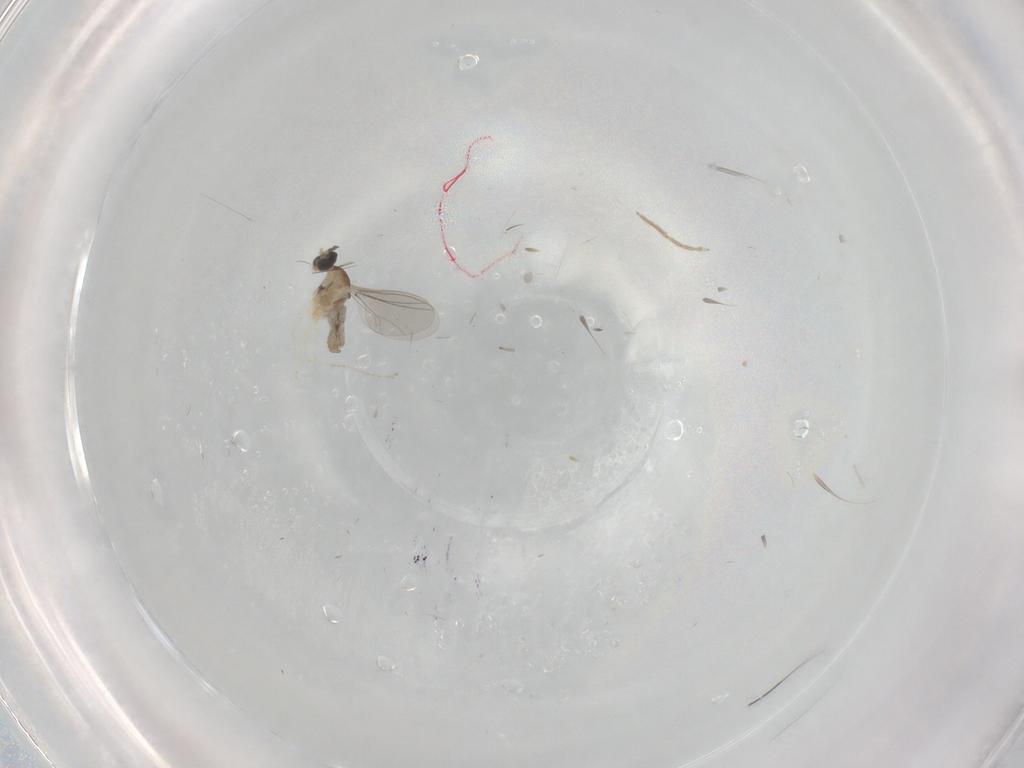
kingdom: Animalia
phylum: Arthropoda
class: Insecta
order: Diptera
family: Cecidomyiidae
